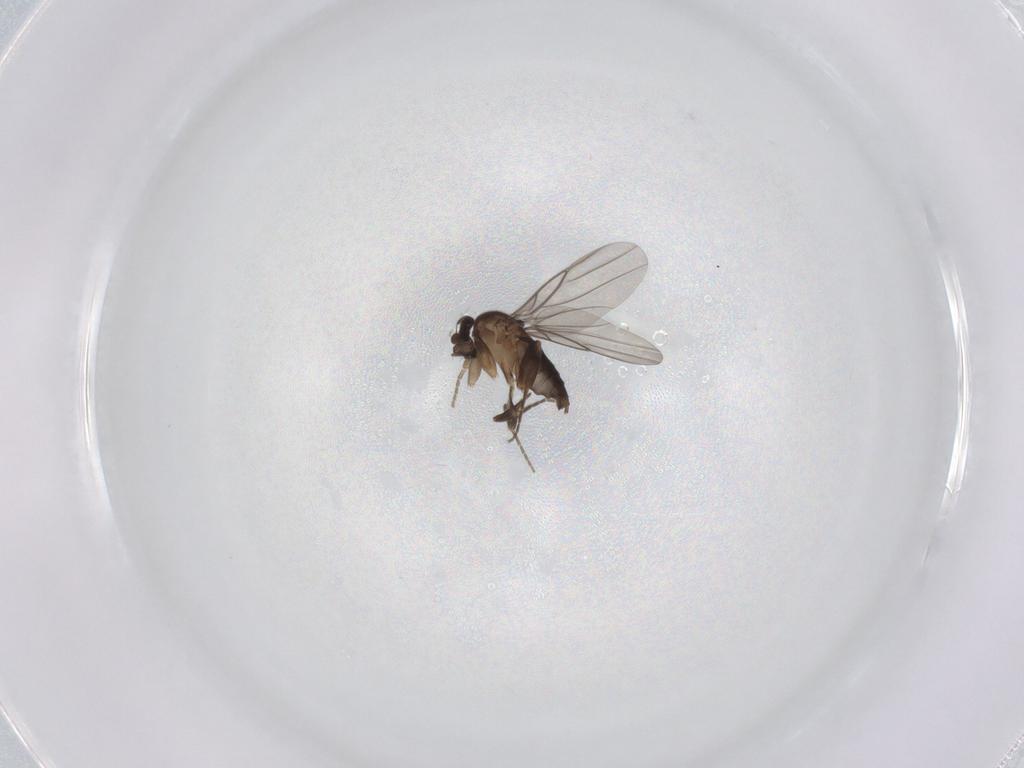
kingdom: Animalia
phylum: Arthropoda
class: Insecta
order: Diptera
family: Phoridae
